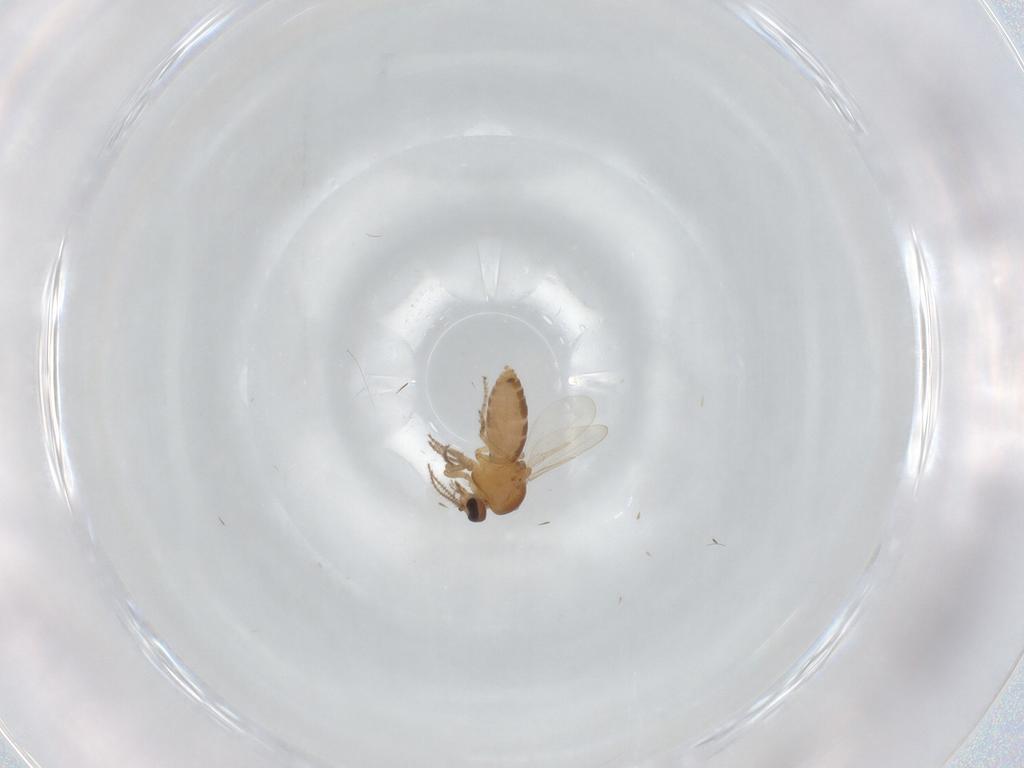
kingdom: Animalia
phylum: Arthropoda
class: Insecta
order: Diptera
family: Ceratopogonidae
